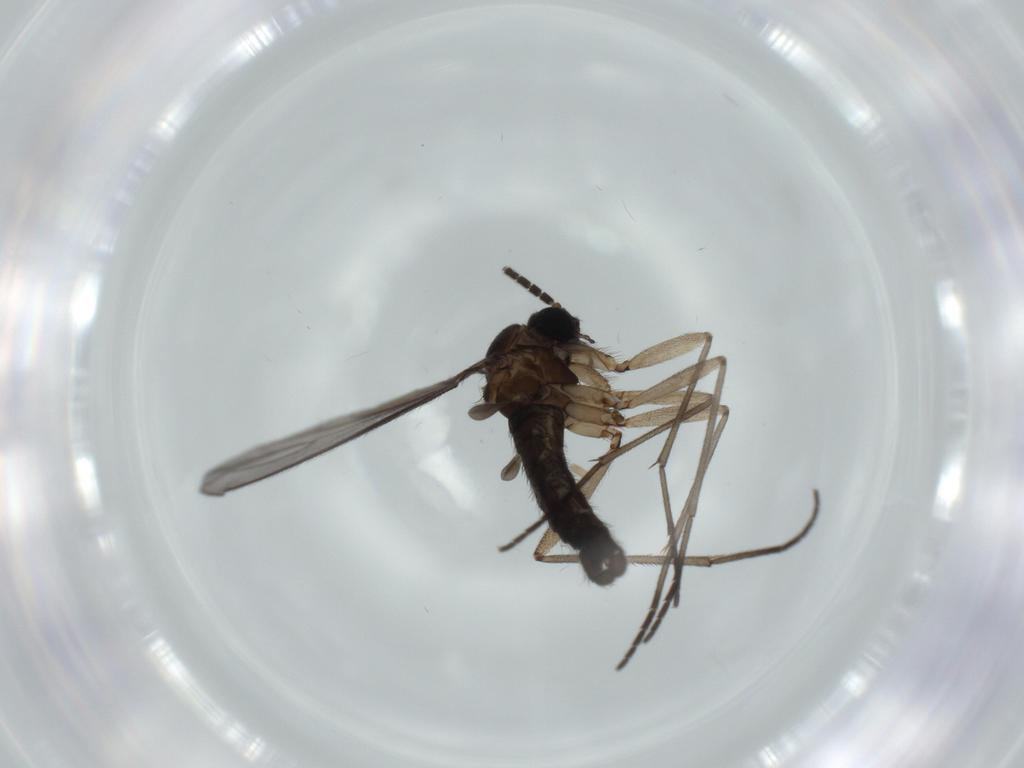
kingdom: Animalia
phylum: Arthropoda
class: Insecta
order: Diptera
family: Sciaridae
